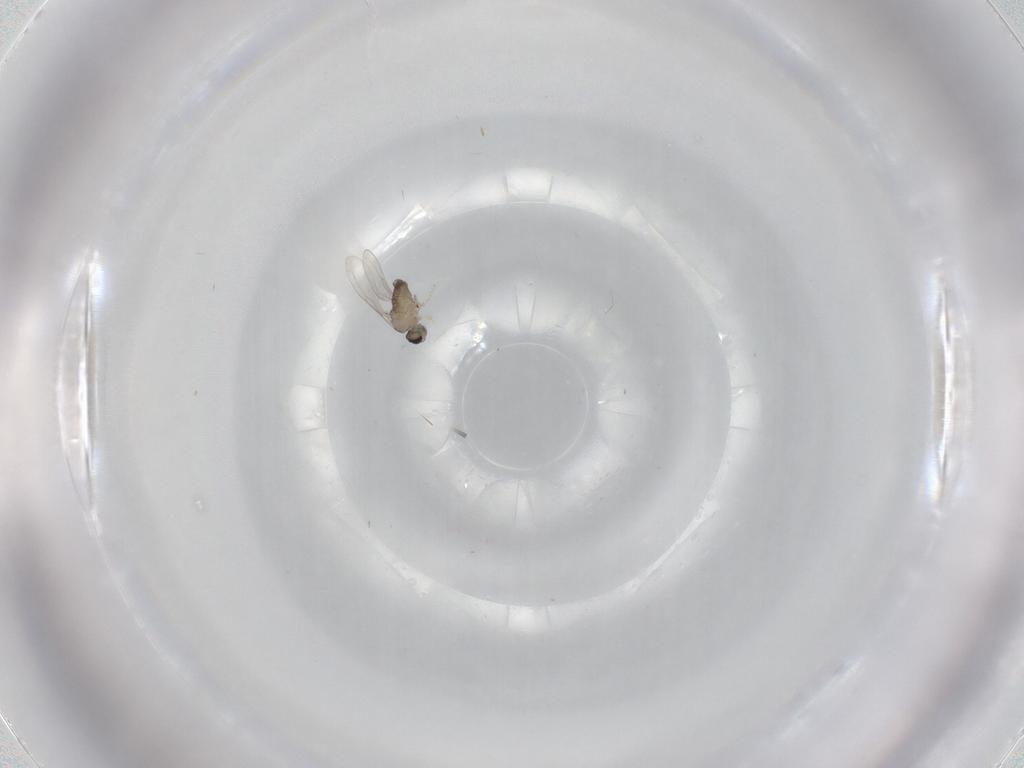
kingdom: Animalia
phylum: Arthropoda
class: Insecta
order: Diptera
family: Cecidomyiidae
